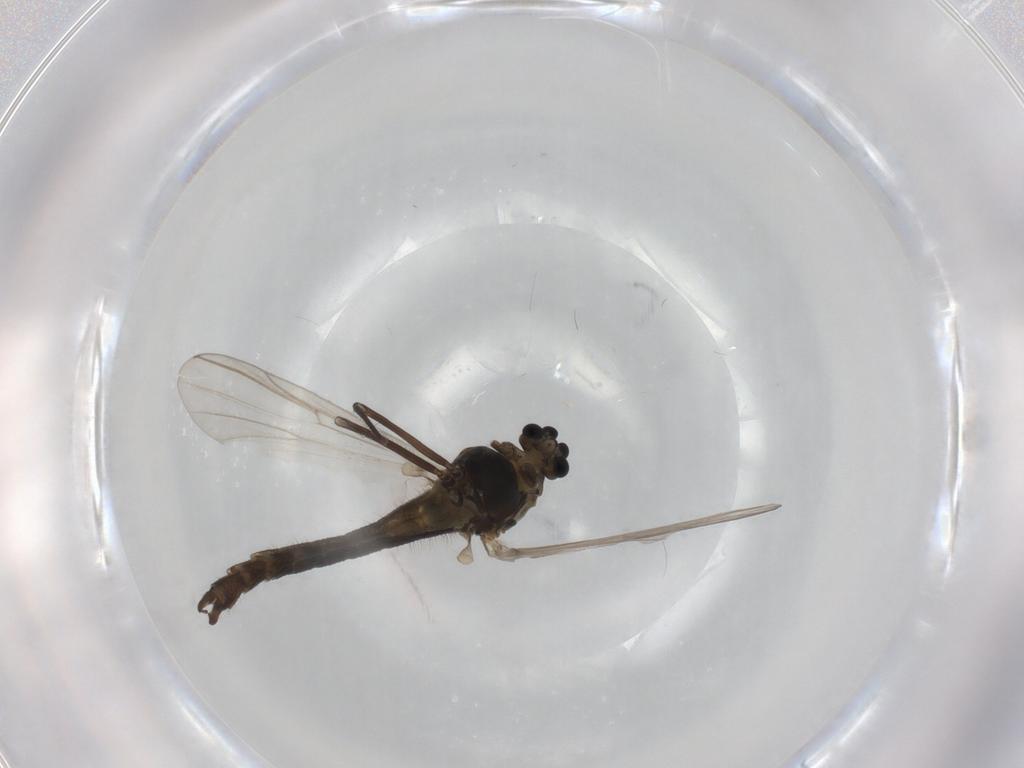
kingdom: Animalia
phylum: Arthropoda
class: Insecta
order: Diptera
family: Chironomidae
